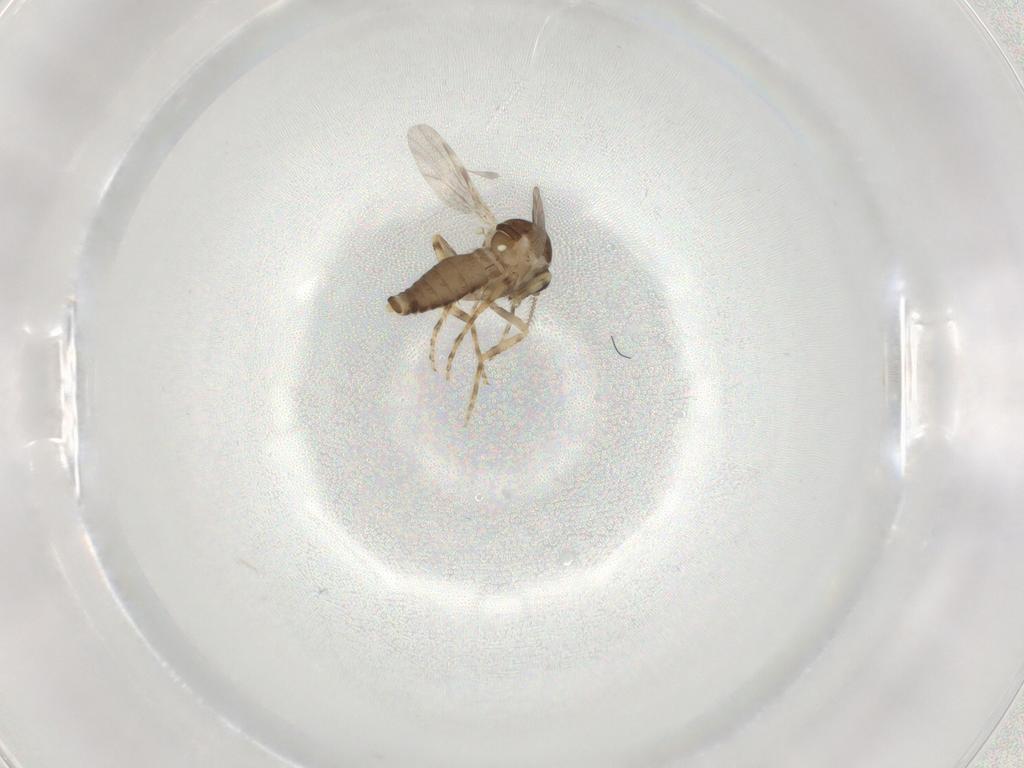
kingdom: Animalia
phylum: Arthropoda
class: Insecta
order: Diptera
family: Ceratopogonidae
